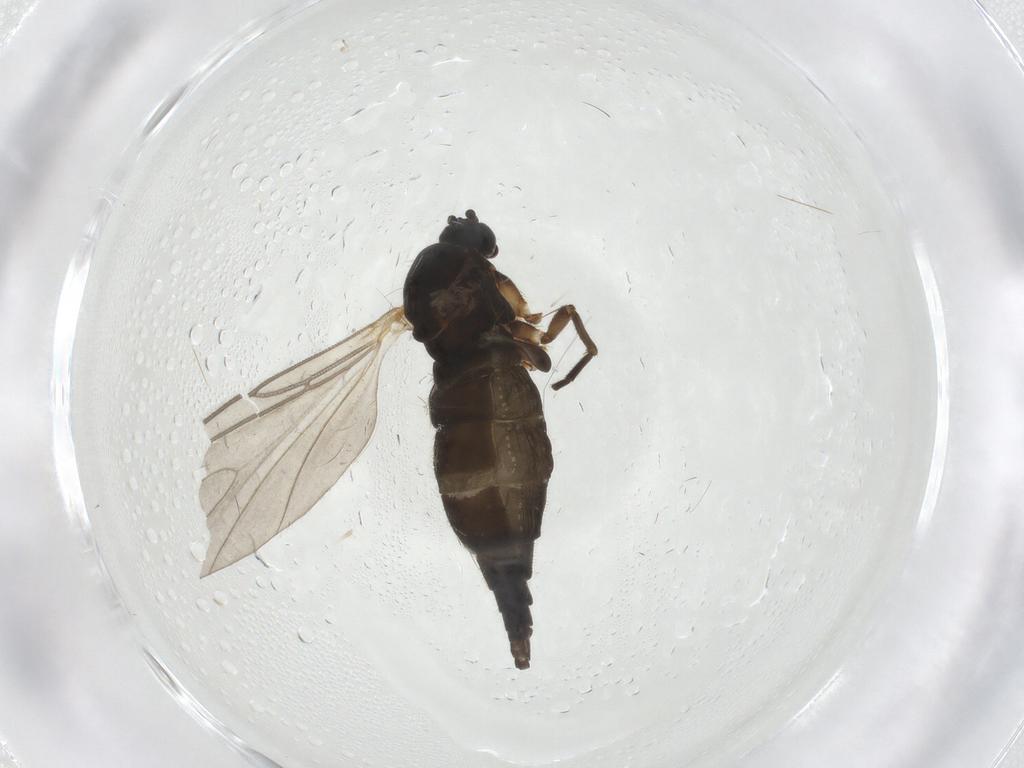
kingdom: Animalia
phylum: Arthropoda
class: Insecta
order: Diptera
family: Sciaridae
